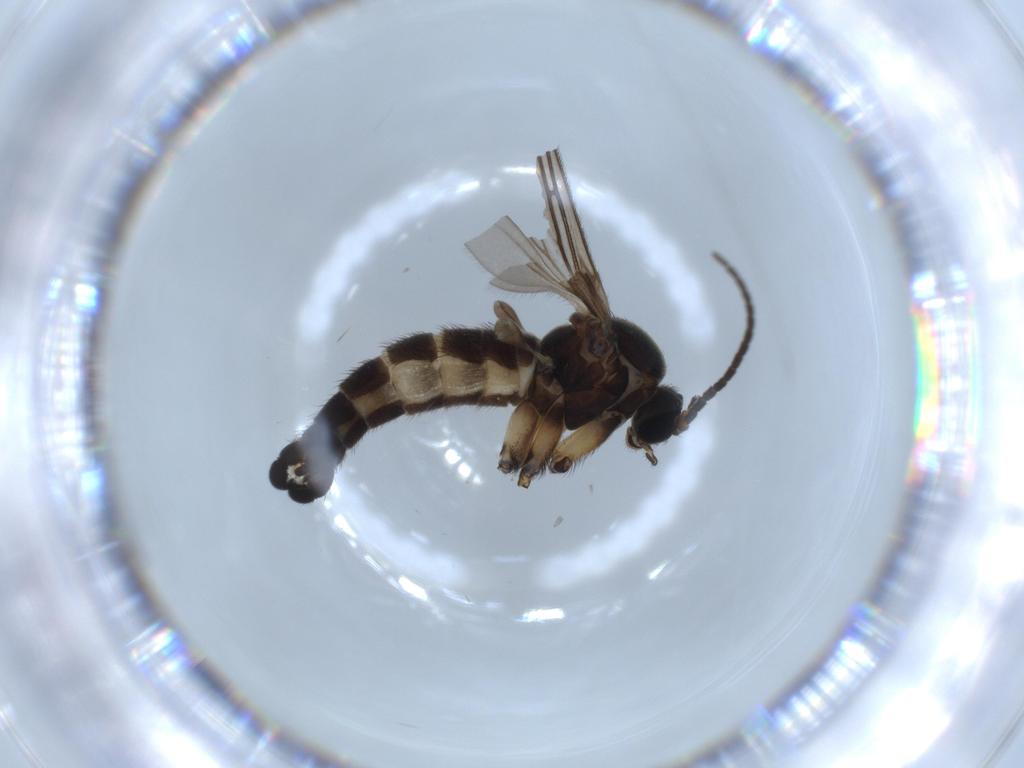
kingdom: Animalia
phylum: Arthropoda
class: Insecta
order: Diptera
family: Sciaridae
